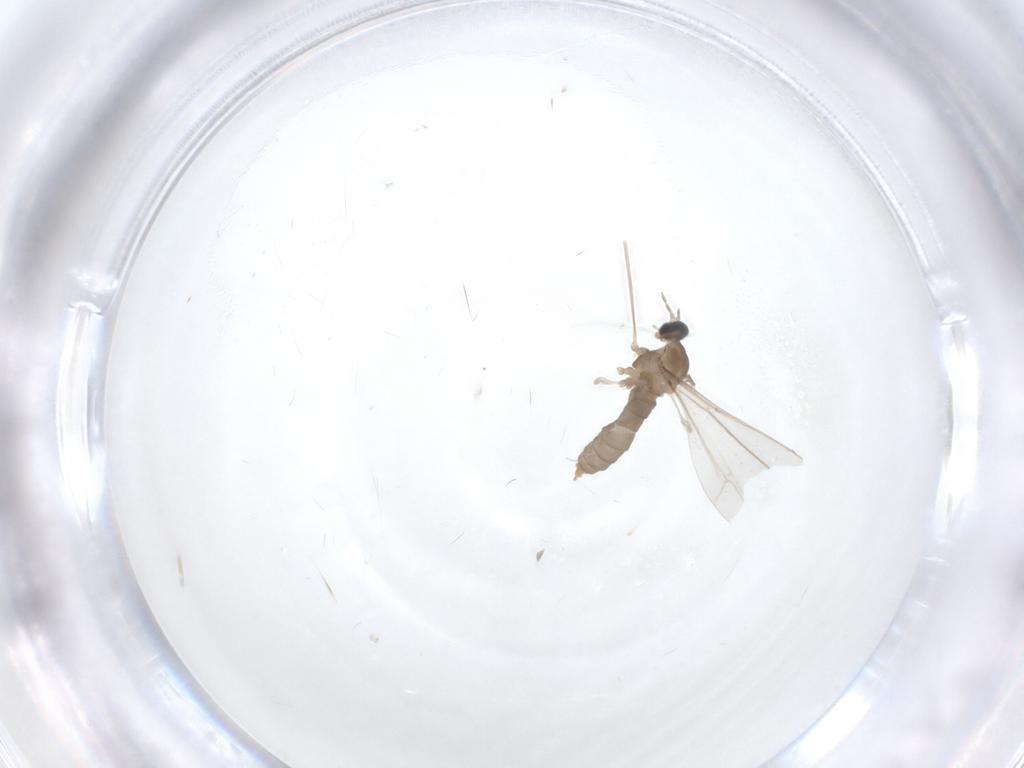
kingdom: Animalia
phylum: Arthropoda
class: Insecta
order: Diptera
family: Cecidomyiidae
